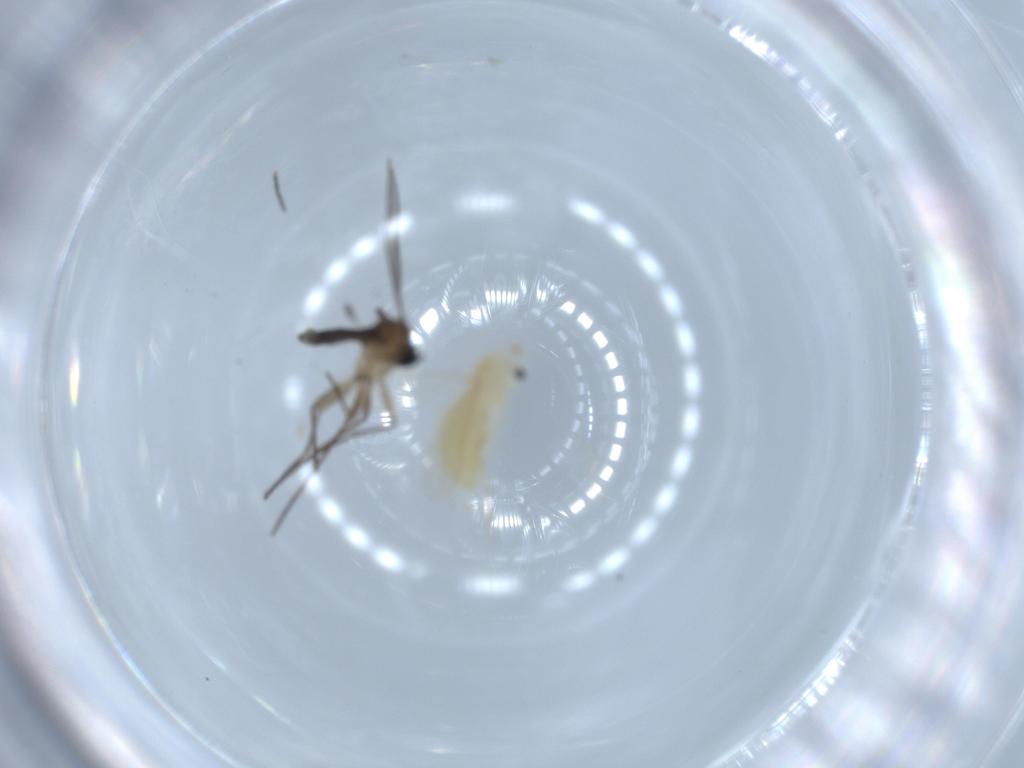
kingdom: Animalia
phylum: Arthropoda
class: Insecta
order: Diptera
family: Chironomidae
